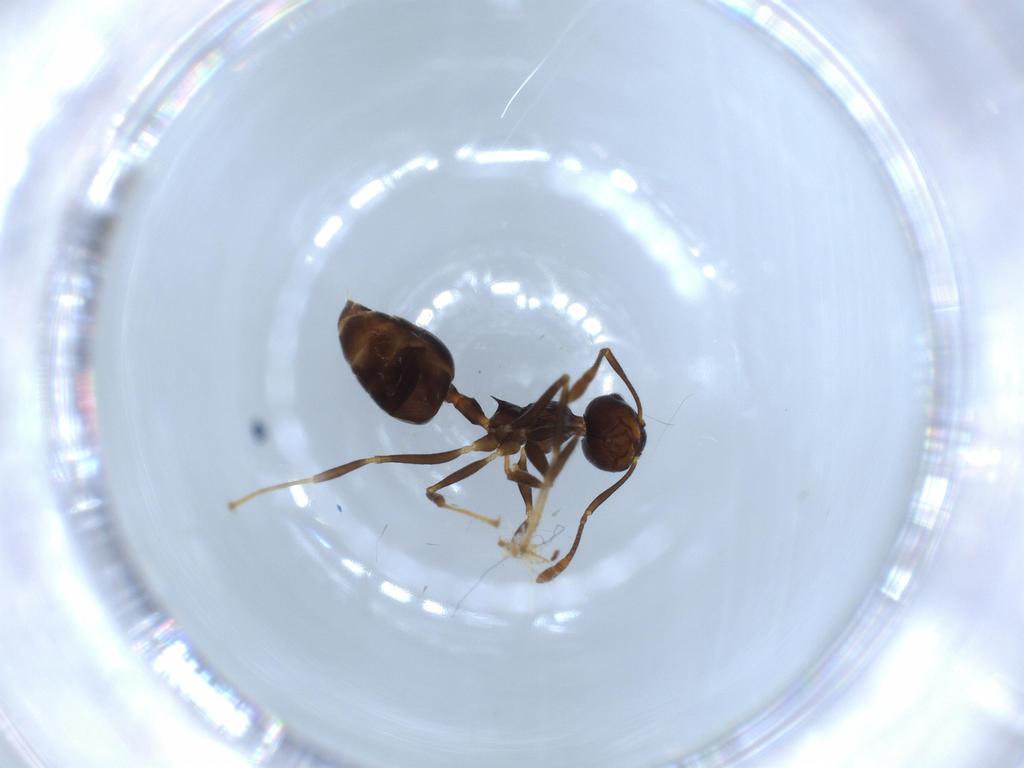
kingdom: Animalia
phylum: Arthropoda
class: Insecta
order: Hymenoptera
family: Formicidae
